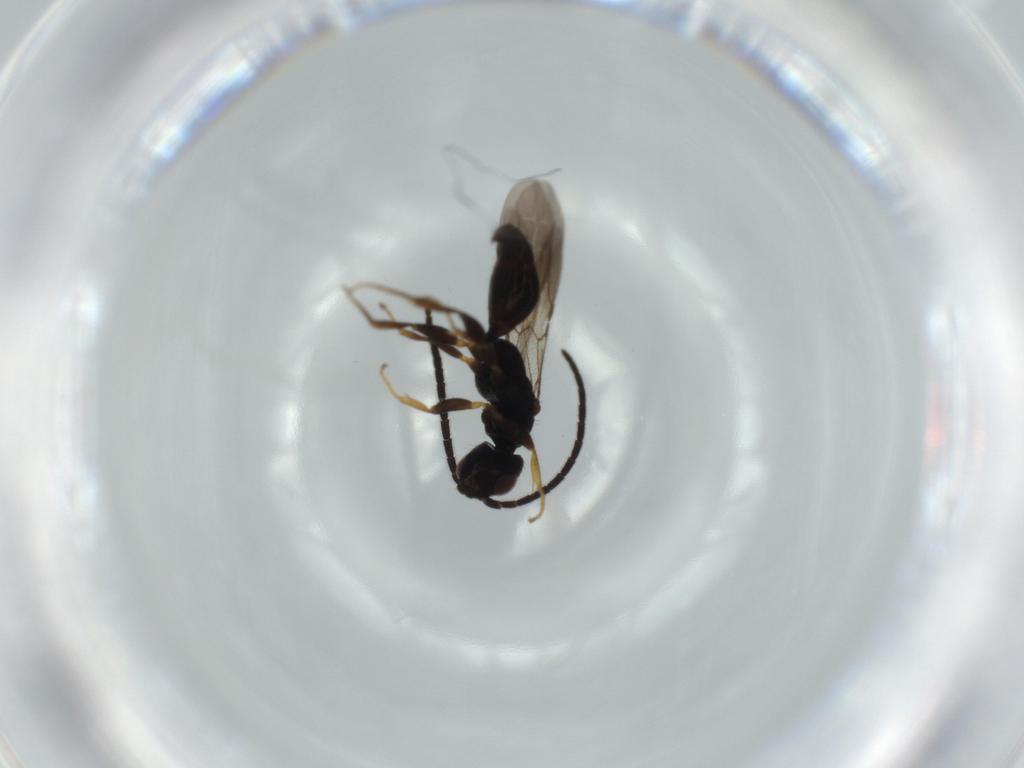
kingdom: Animalia
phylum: Arthropoda
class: Insecta
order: Hymenoptera
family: Bethylidae
